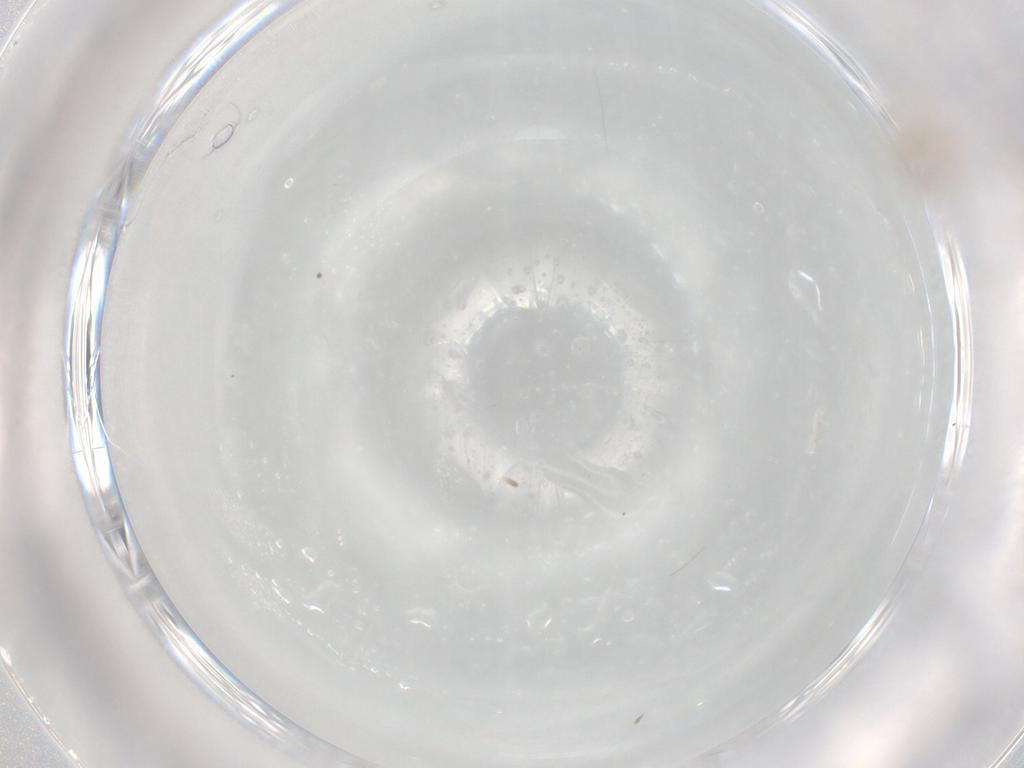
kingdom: Animalia
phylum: Arthropoda
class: Insecta
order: Diptera
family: Cecidomyiidae
